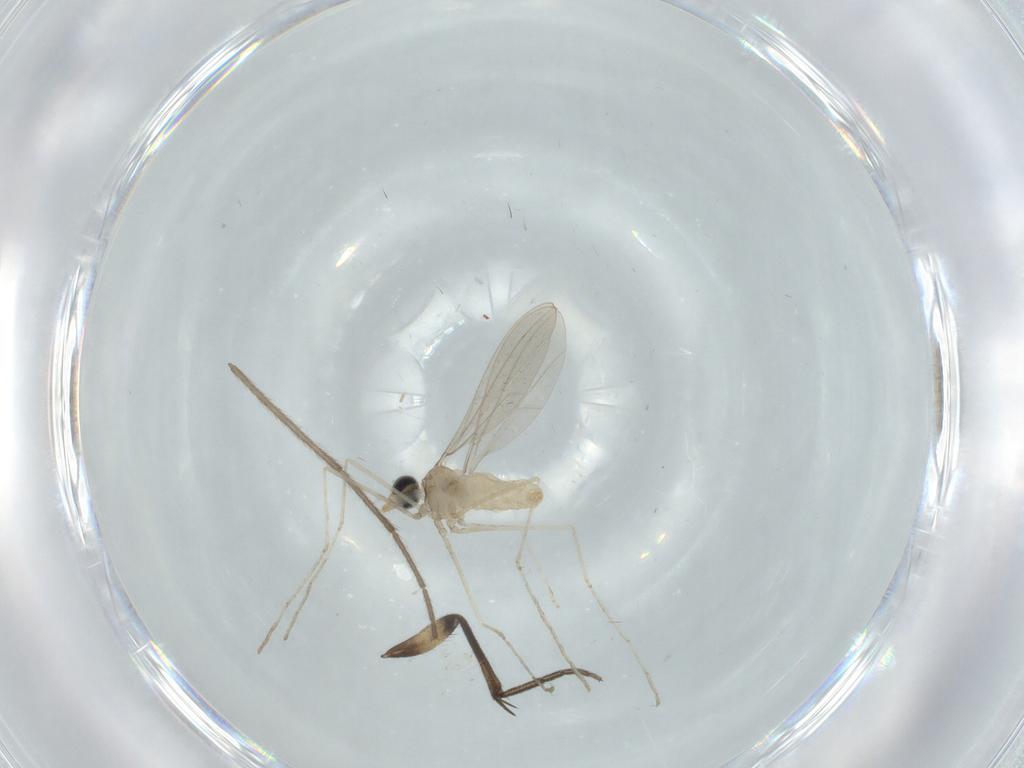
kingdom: Animalia
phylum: Arthropoda
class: Insecta
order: Diptera
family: Cecidomyiidae
